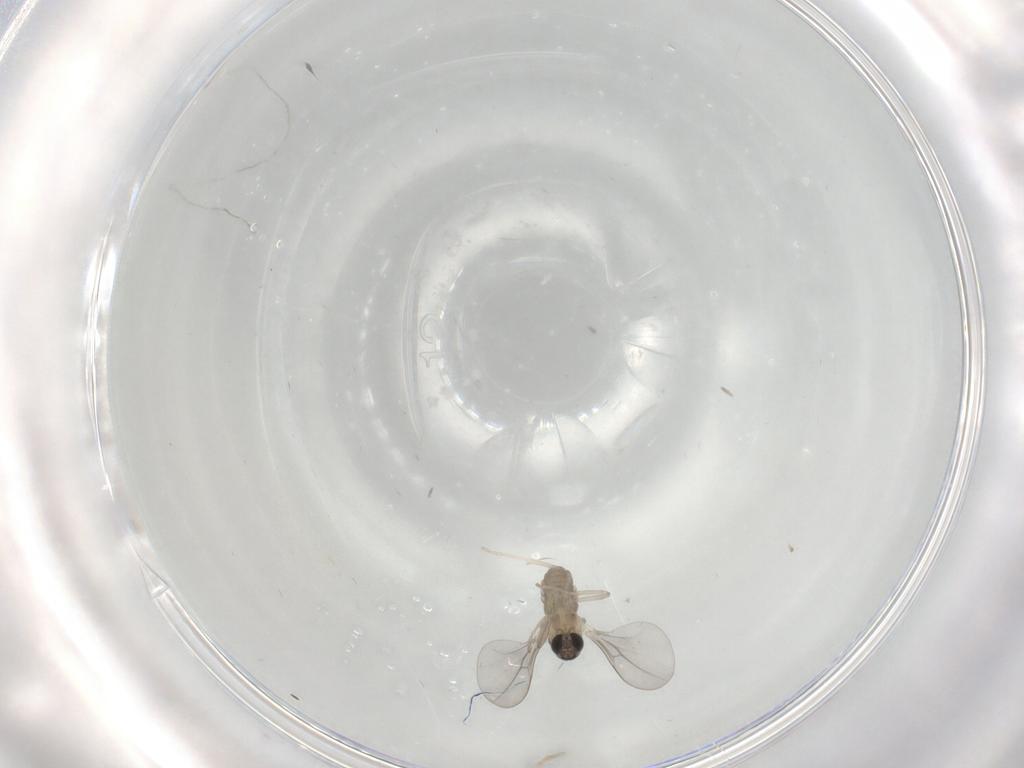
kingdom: Animalia
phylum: Arthropoda
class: Insecta
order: Diptera
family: Cecidomyiidae
